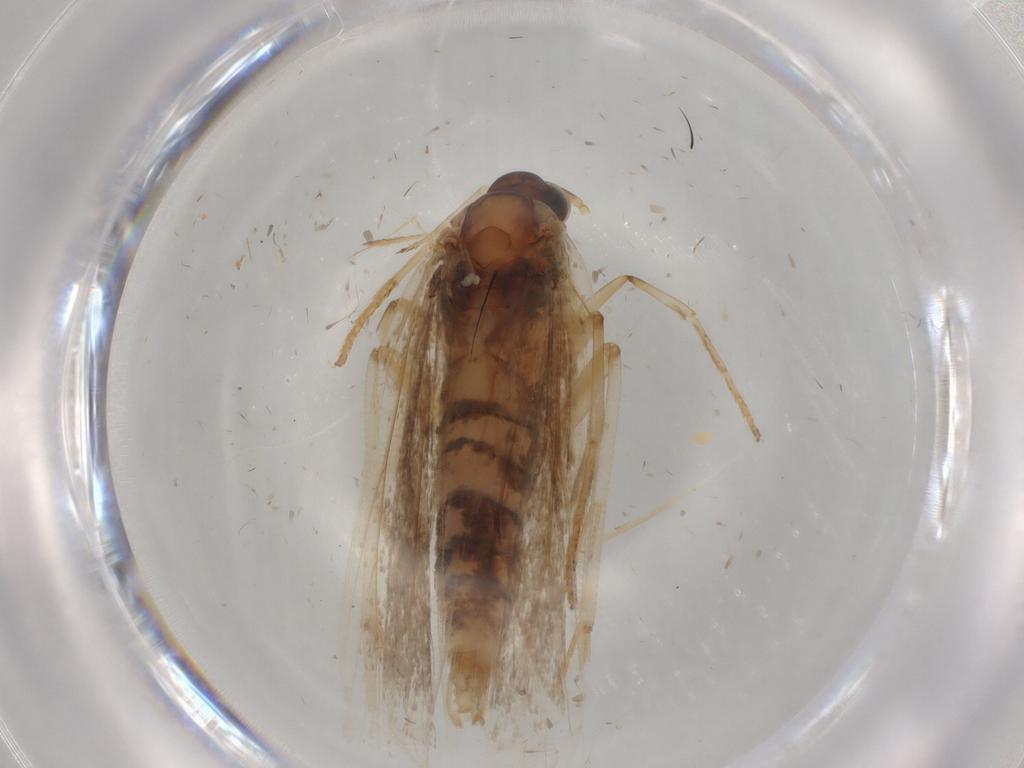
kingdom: Animalia
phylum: Arthropoda
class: Insecta
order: Lepidoptera
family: Gelechiidae
